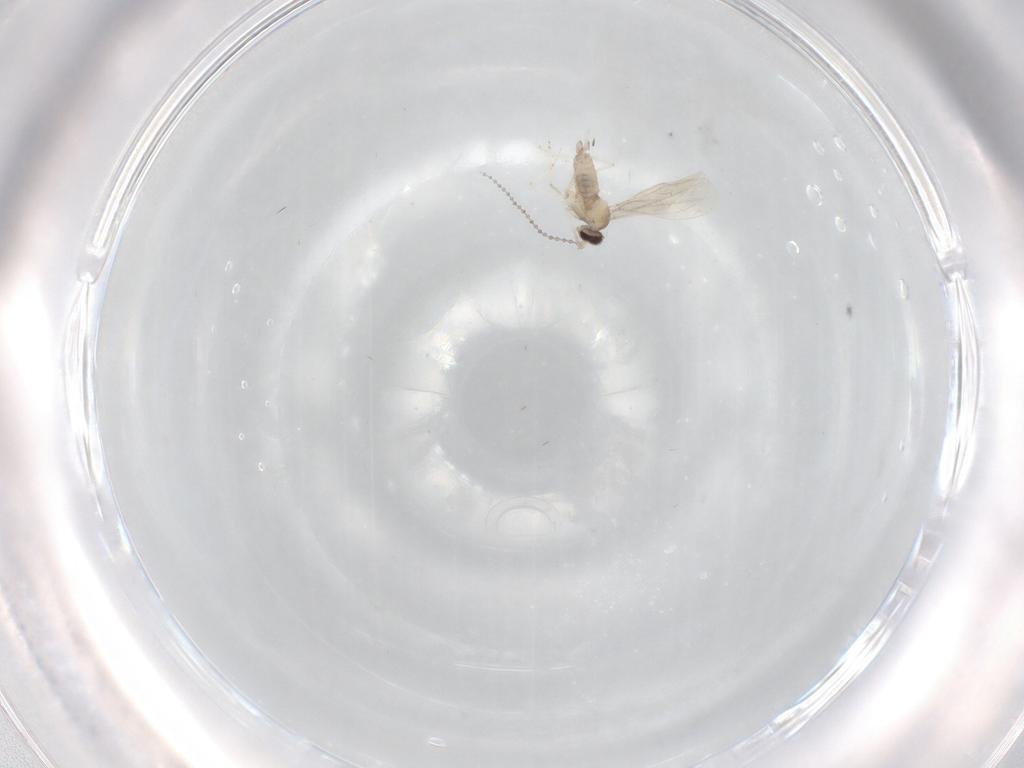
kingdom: Animalia
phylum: Arthropoda
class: Insecta
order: Diptera
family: Cecidomyiidae
